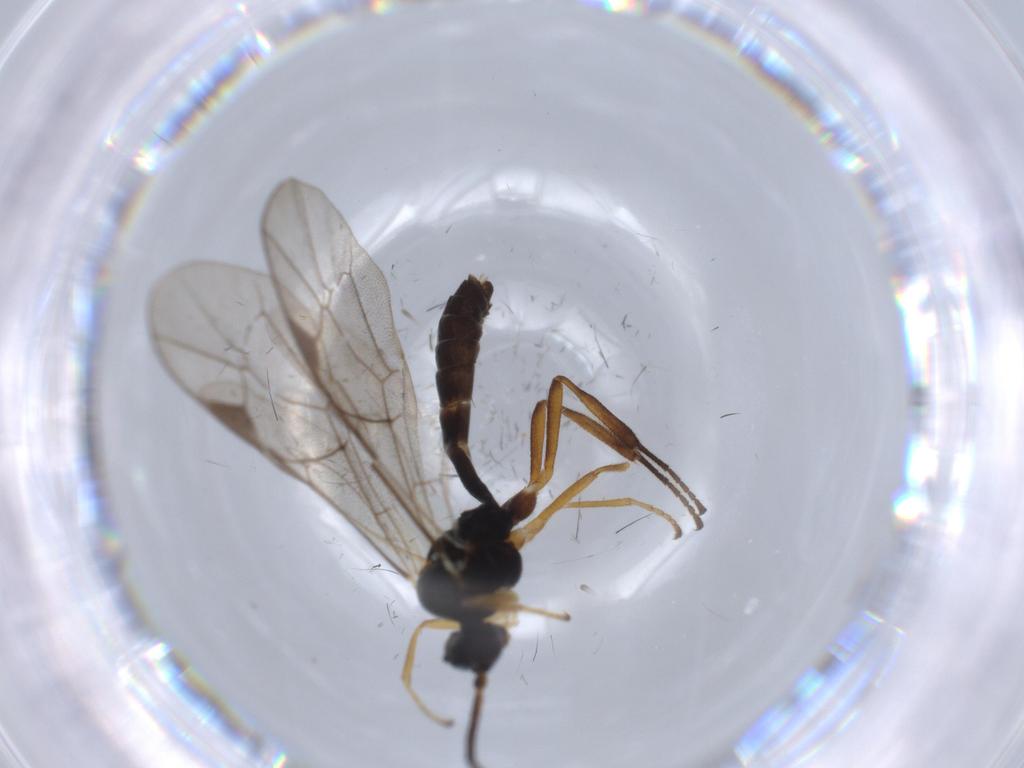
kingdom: Animalia
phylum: Arthropoda
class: Insecta
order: Hymenoptera
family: Ichneumonidae
